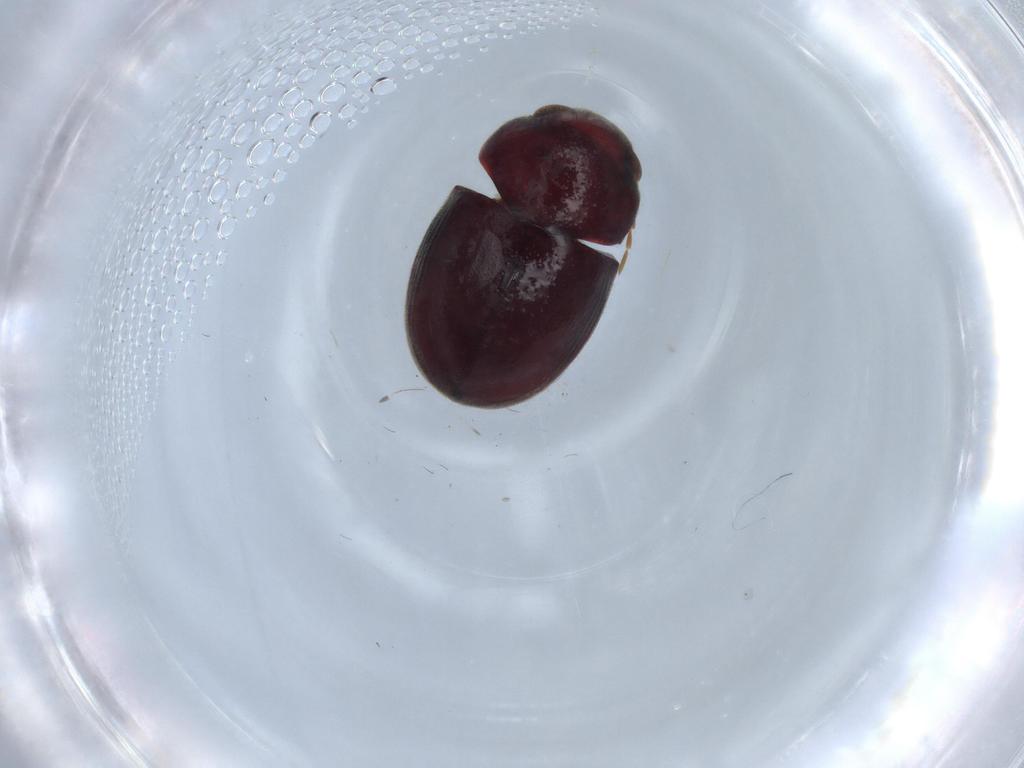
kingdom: Animalia
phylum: Arthropoda
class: Insecta
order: Coleoptera
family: Ptinidae
